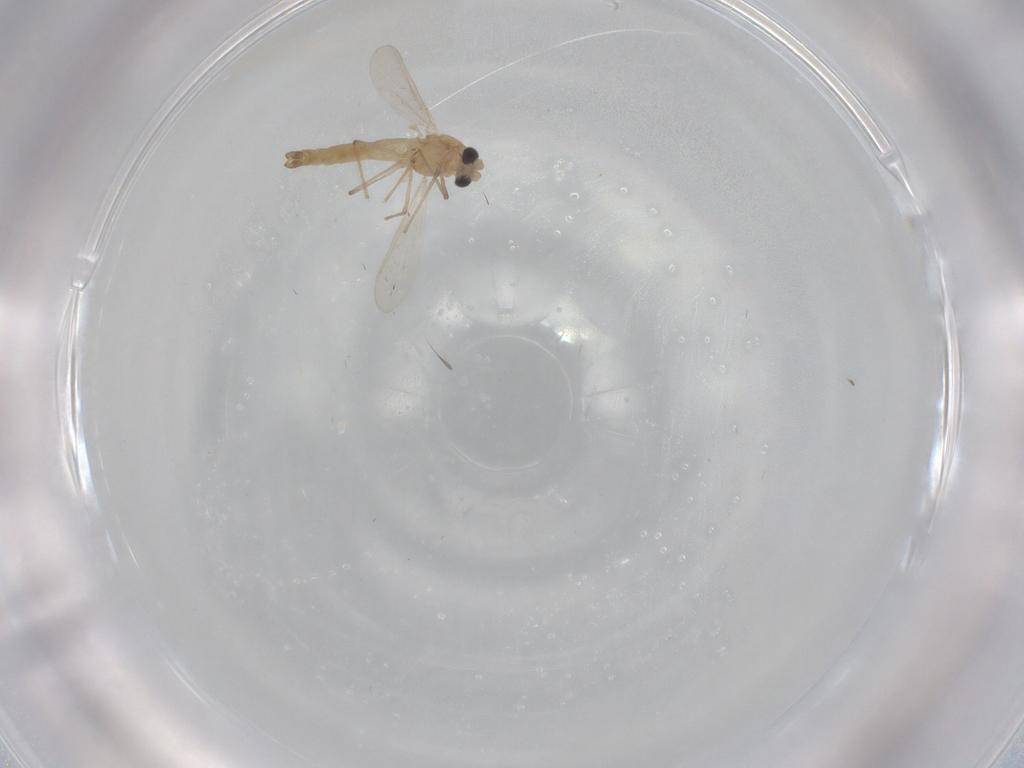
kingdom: Animalia
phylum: Arthropoda
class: Insecta
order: Diptera
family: Chironomidae
